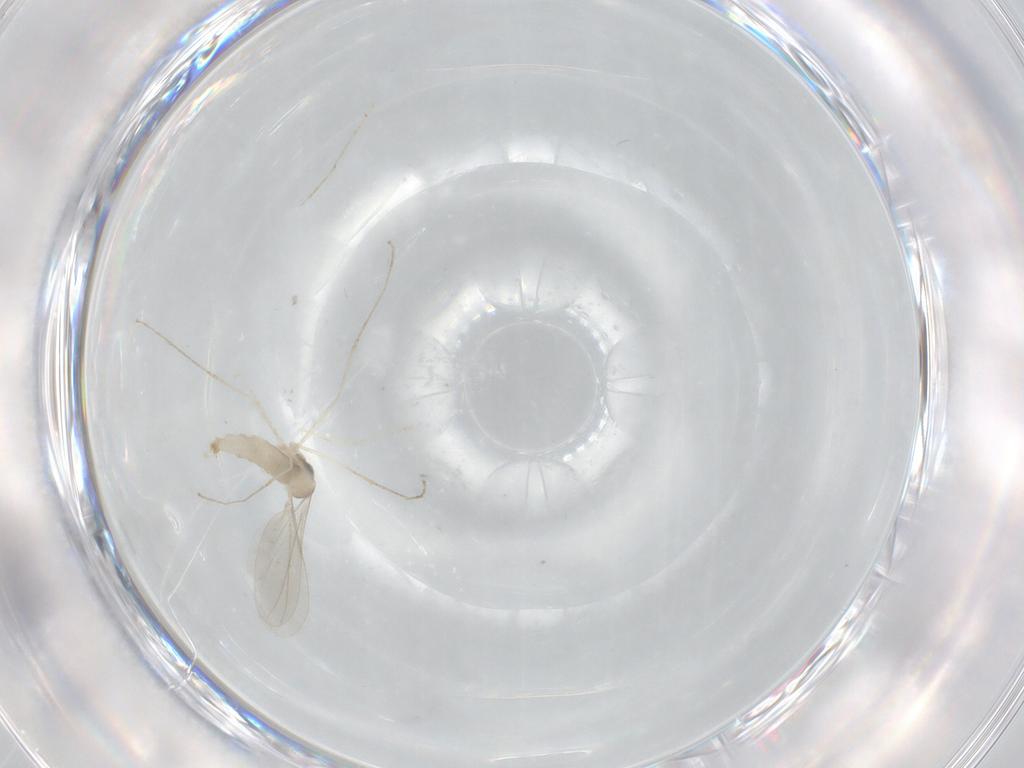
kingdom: Animalia
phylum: Arthropoda
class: Insecta
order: Diptera
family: Cecidomyiidae
